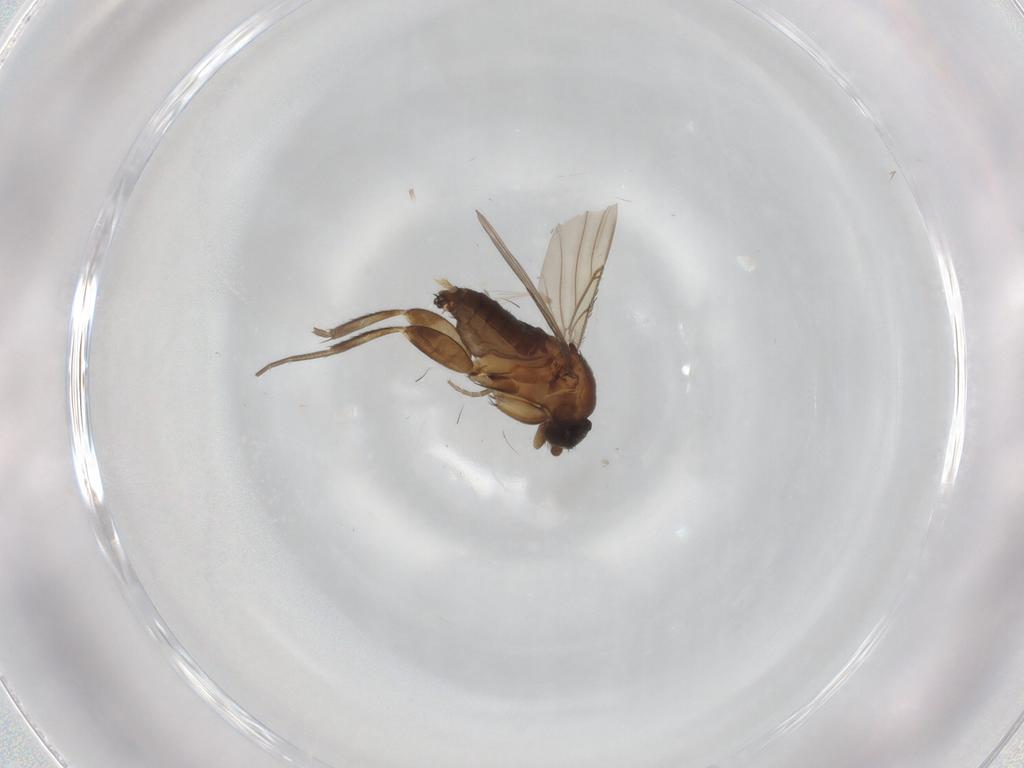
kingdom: Animalia
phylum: Arthropoda
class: Insecta
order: Diptera
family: Phoridae
